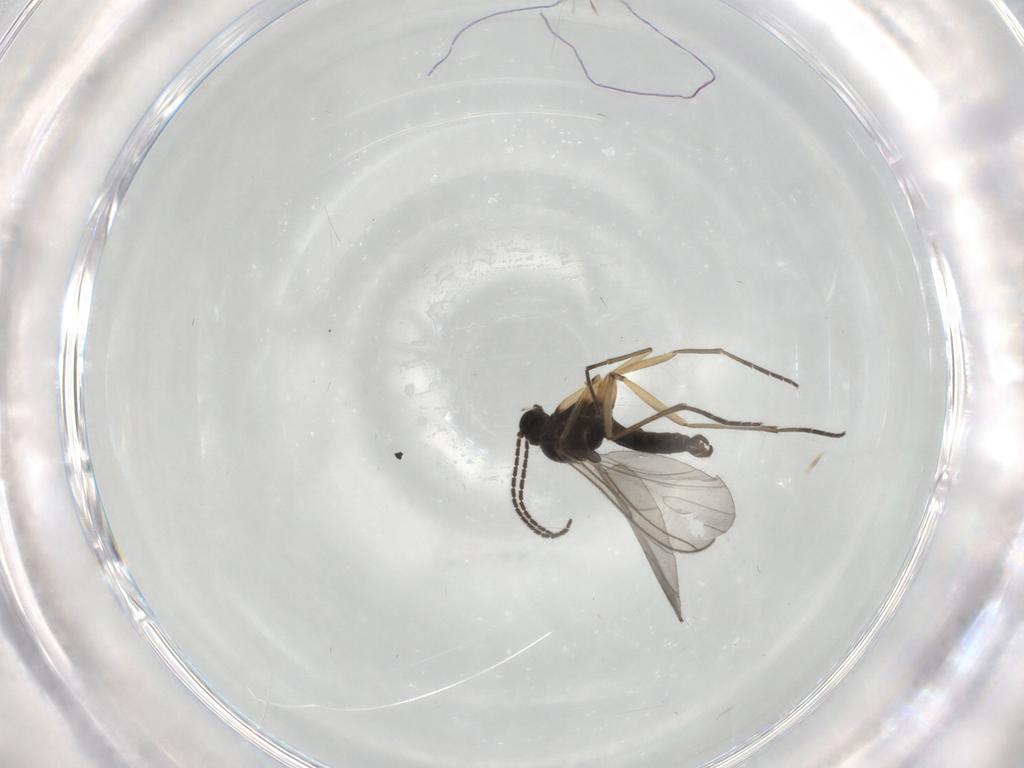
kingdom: Animalia
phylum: Arthropoda
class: Insecta
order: Diptera
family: Sciaridae
